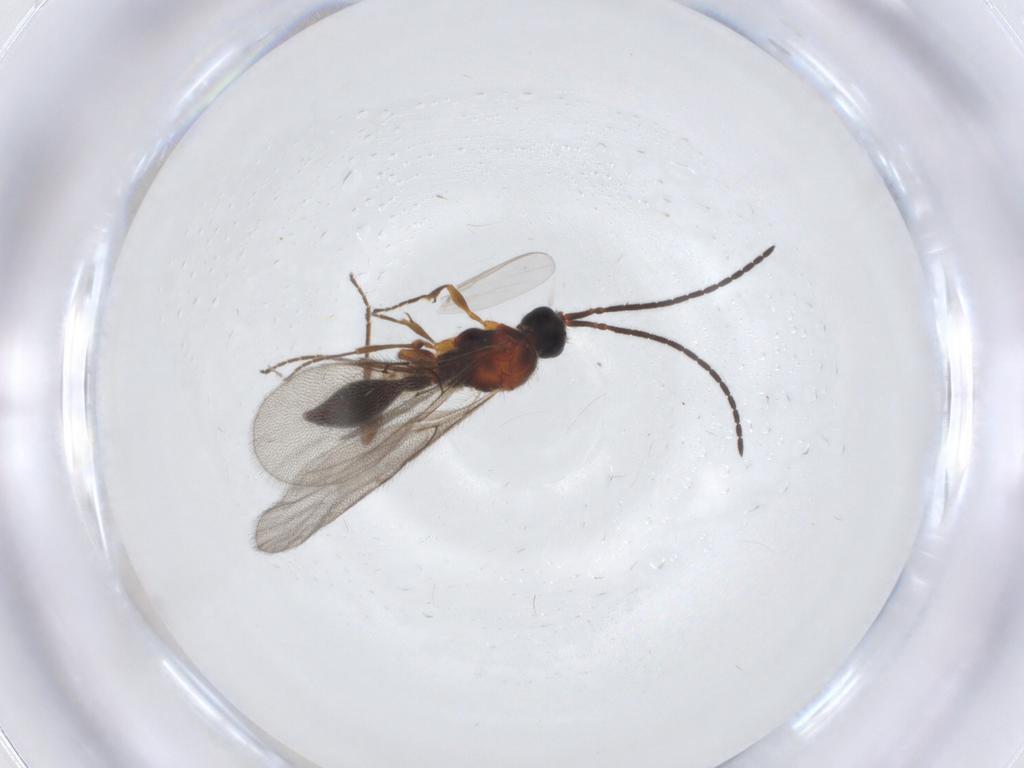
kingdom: Animalia
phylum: Arthropoda
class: Insecta
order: Hymenoptera
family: Diapriidae
